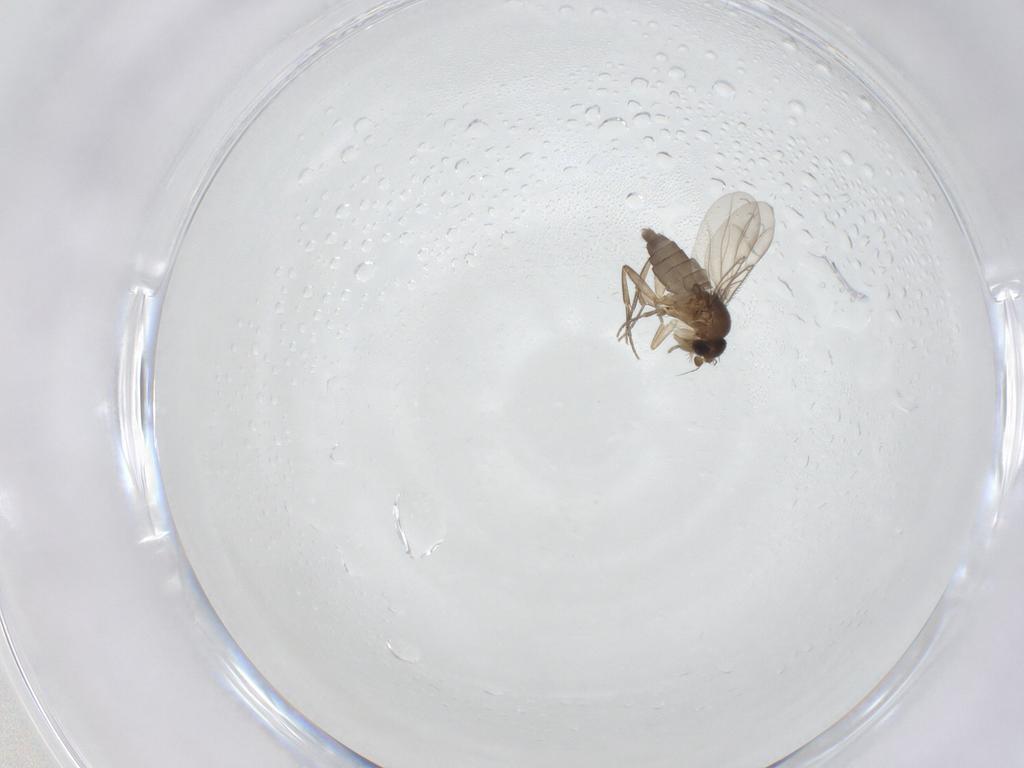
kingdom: Animalia
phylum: Arthropoda
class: Insecta
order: Diptera
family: Phoridae
